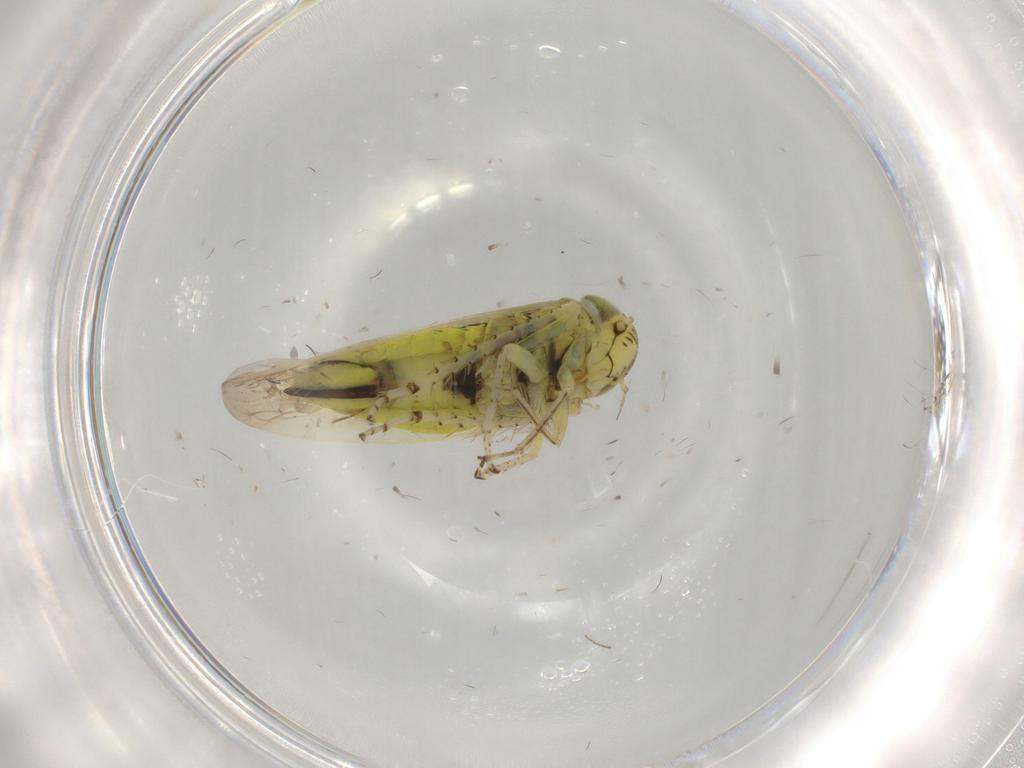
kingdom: Animalia
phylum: Arthropoda
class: Insecta
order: Hemiptera
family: Cicadellidae
